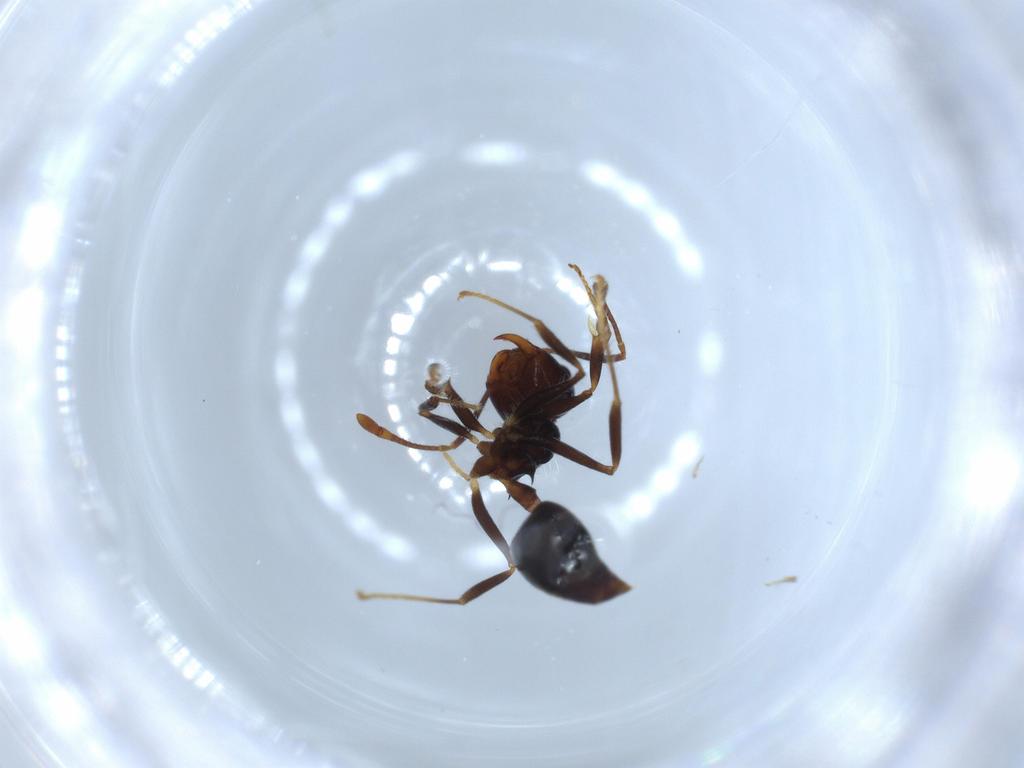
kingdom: Animalia
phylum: Arthropoda
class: Insecta
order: Hymenoptera
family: Formicidae
